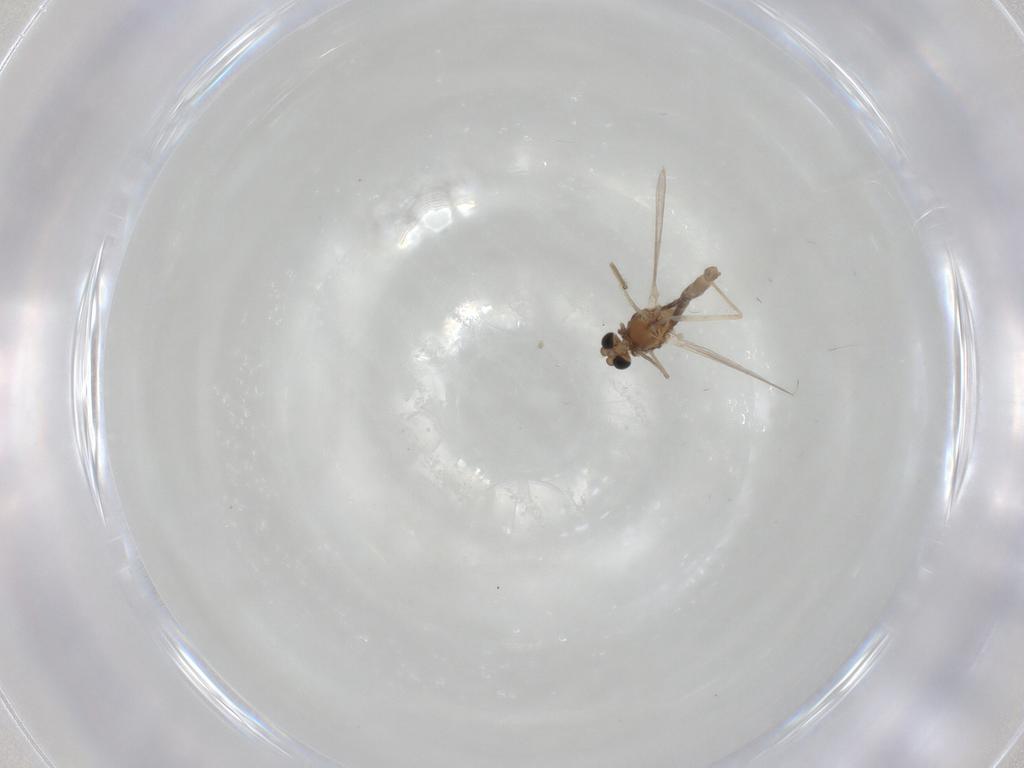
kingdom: Animalia
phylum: Arthropoda
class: Insecta
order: Diptera
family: Chironomidae
